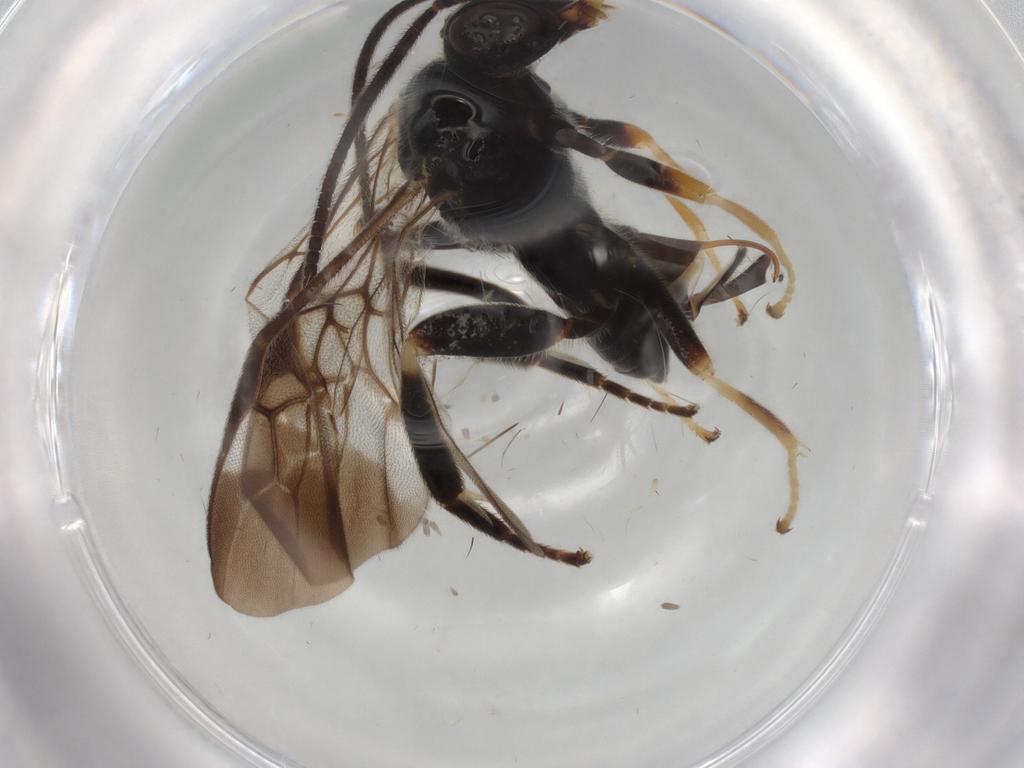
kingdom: Animalia
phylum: Arthropoda
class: Insecta
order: Hymenoptera
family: Braconidae
